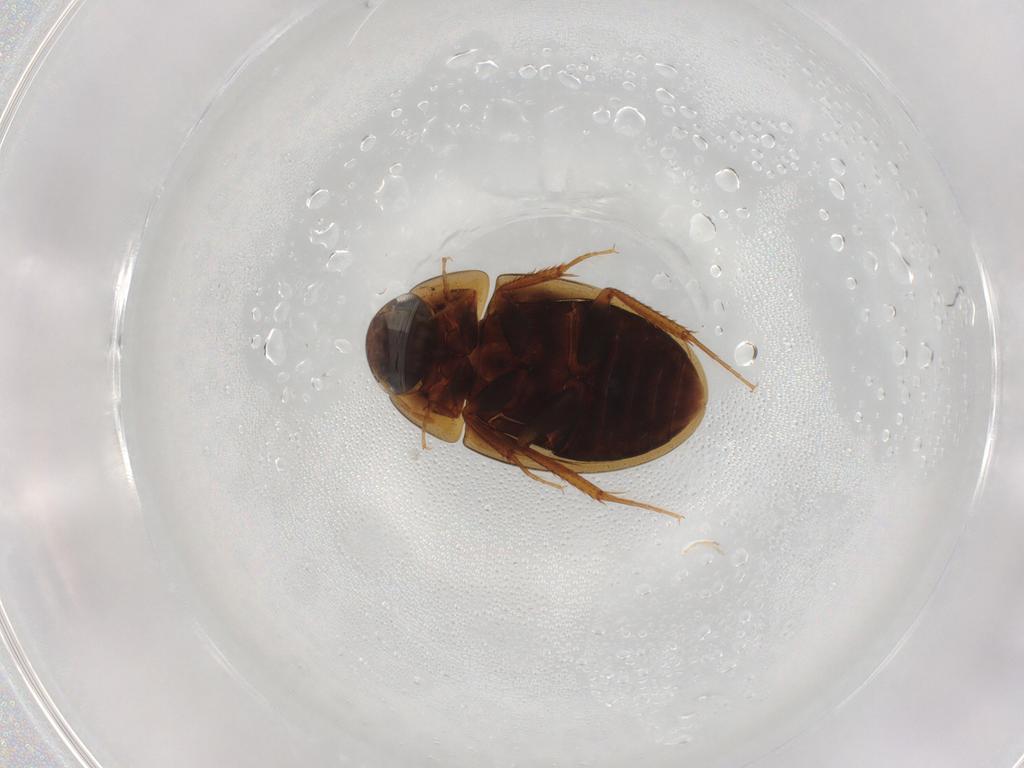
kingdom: Animalia
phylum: Arthropoda
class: Insecta
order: Coleoptera
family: Hydrophilidae
